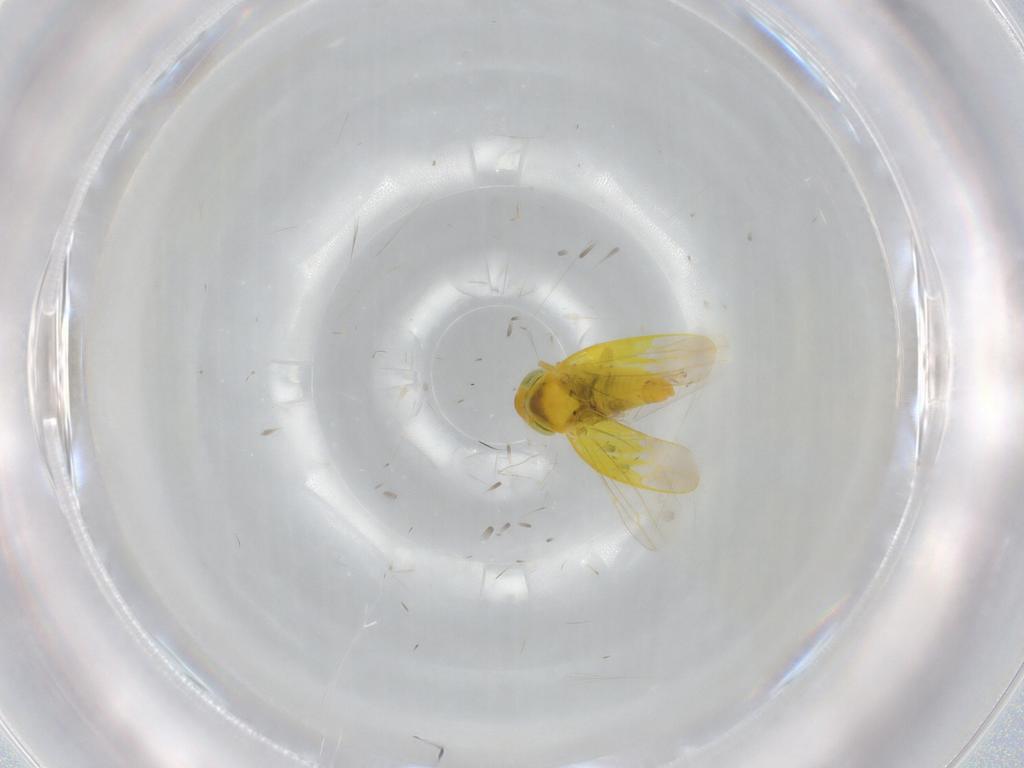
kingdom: Animalia
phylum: Arthropoda
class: Insecta
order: Hemiptera
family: Cicadellidae
